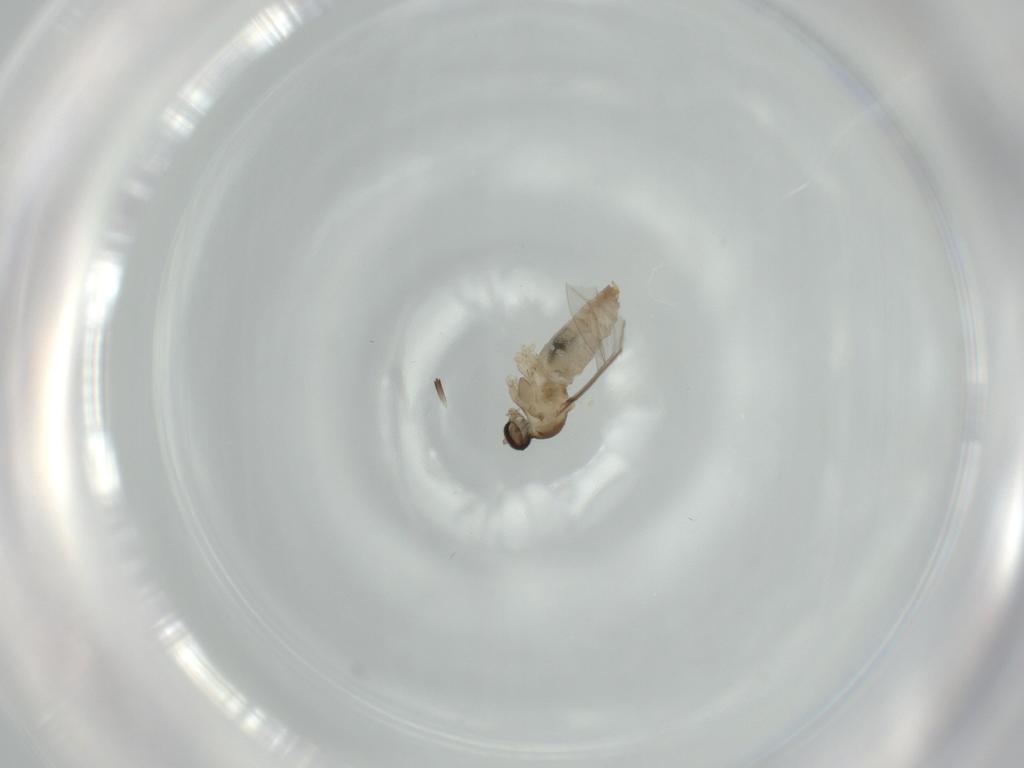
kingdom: Animalia
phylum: Arthropoda
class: Insecta
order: Diptera
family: Cecidomyiidae
